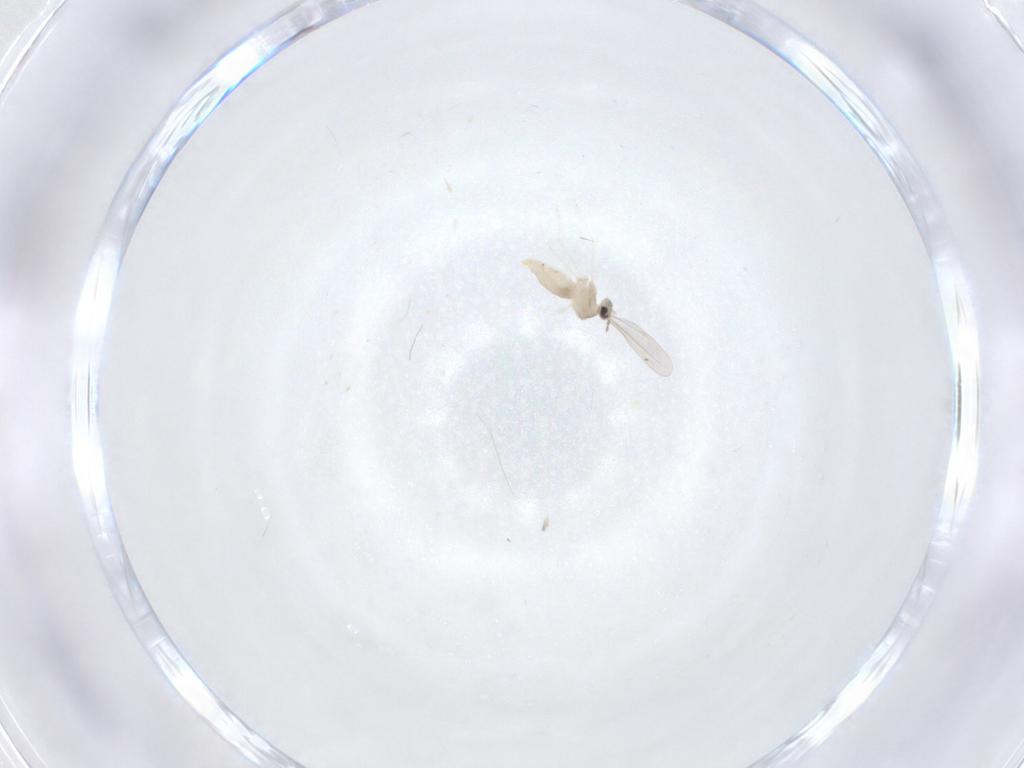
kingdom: Animalia
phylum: Arthropoda
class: Insecta
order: Diptera
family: Cecidomyiidae
